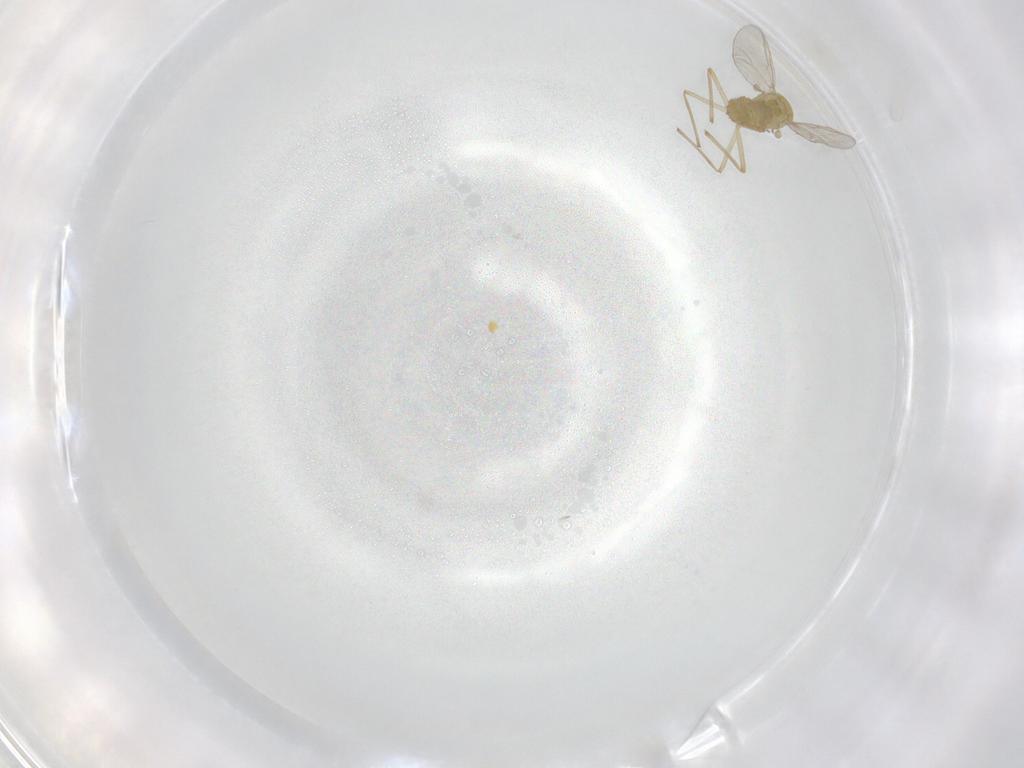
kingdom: Animalia
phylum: Arthropoda
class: Insecta
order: Diptera
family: Chironomidae
